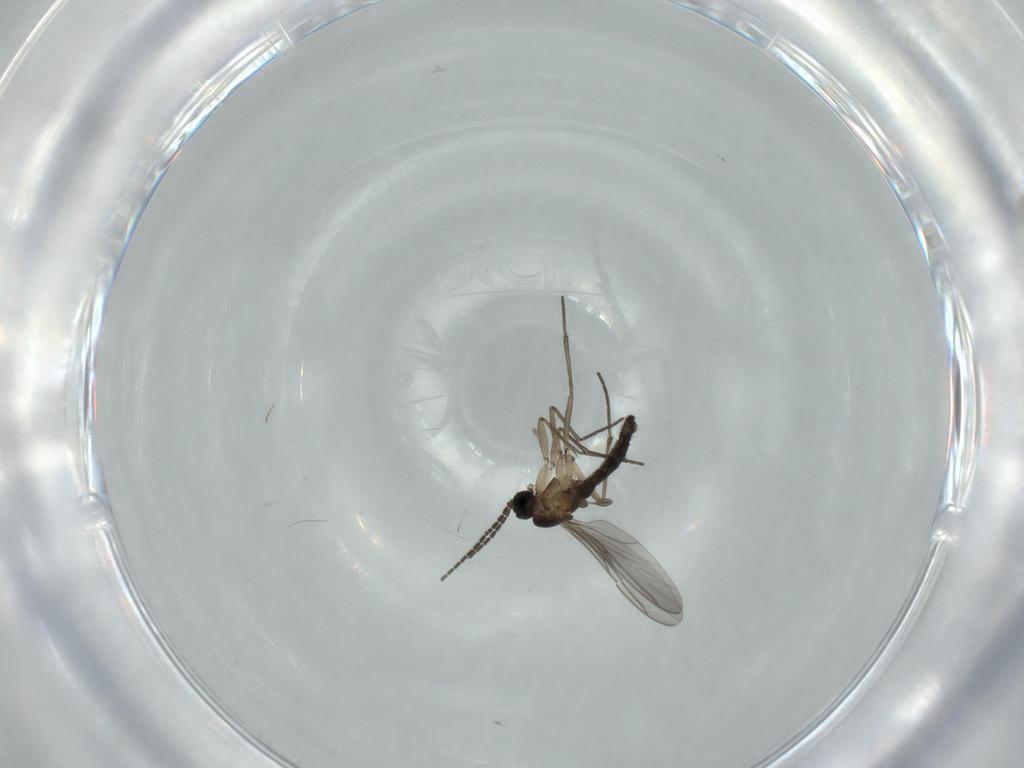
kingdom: Animalia
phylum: Arthropoda
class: Insecta
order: Diptera
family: Sciaridae
